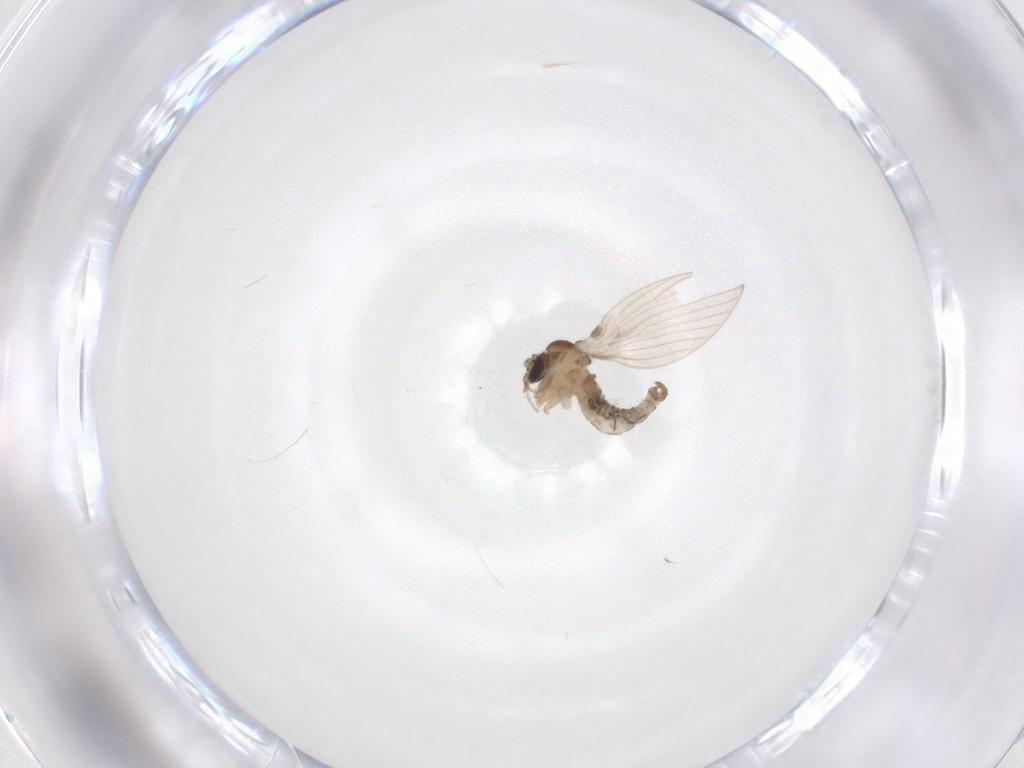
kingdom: Animalia
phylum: Arthropoda
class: Insecta
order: Diptera
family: Psychodidae
